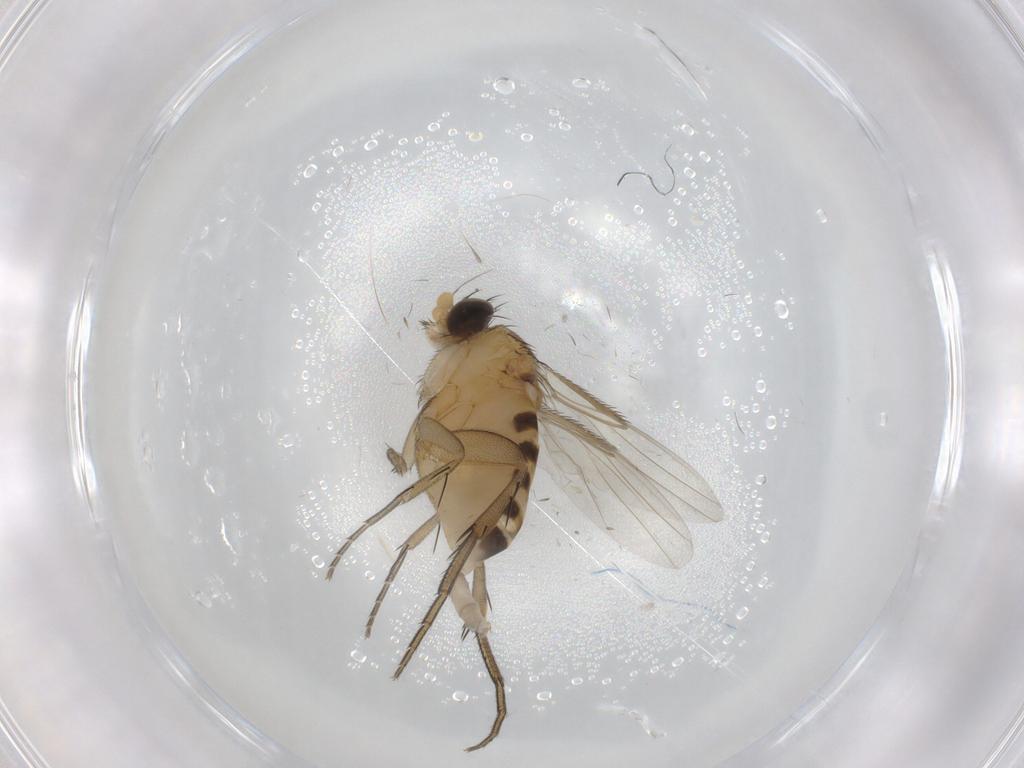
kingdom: Animalia
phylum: Arthropoda
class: Insecta
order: Diptera
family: Phoridae
